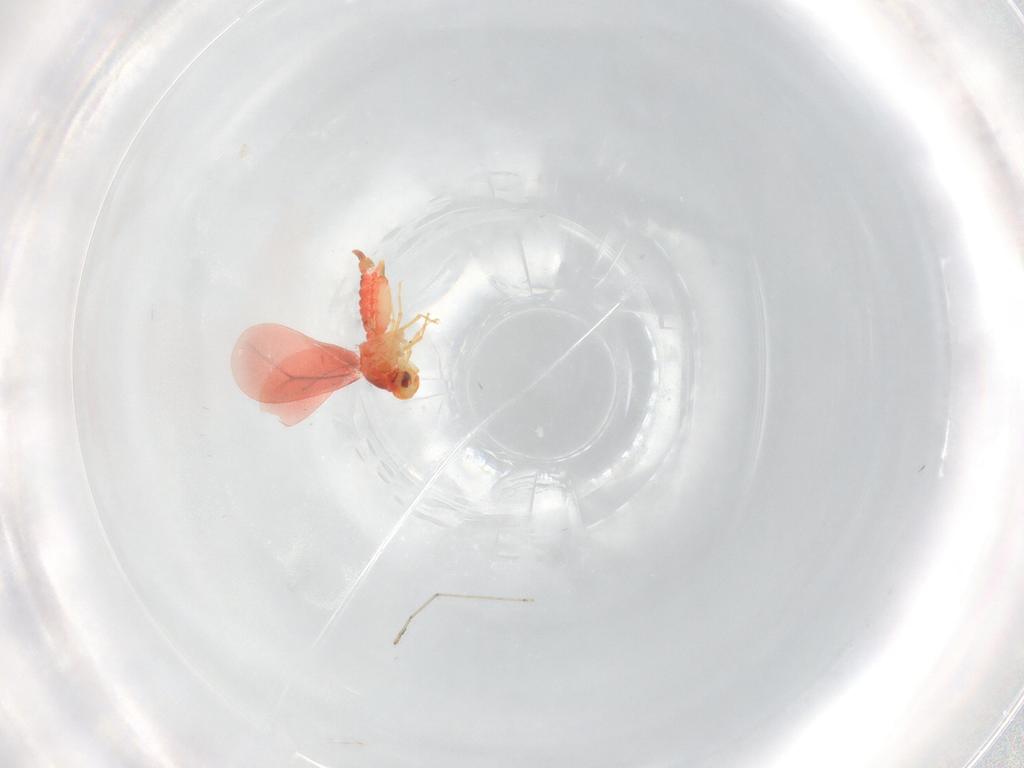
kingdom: Animalia
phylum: Arthropoda
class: Insecta
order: Hemiptera
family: Aleyrodidae
